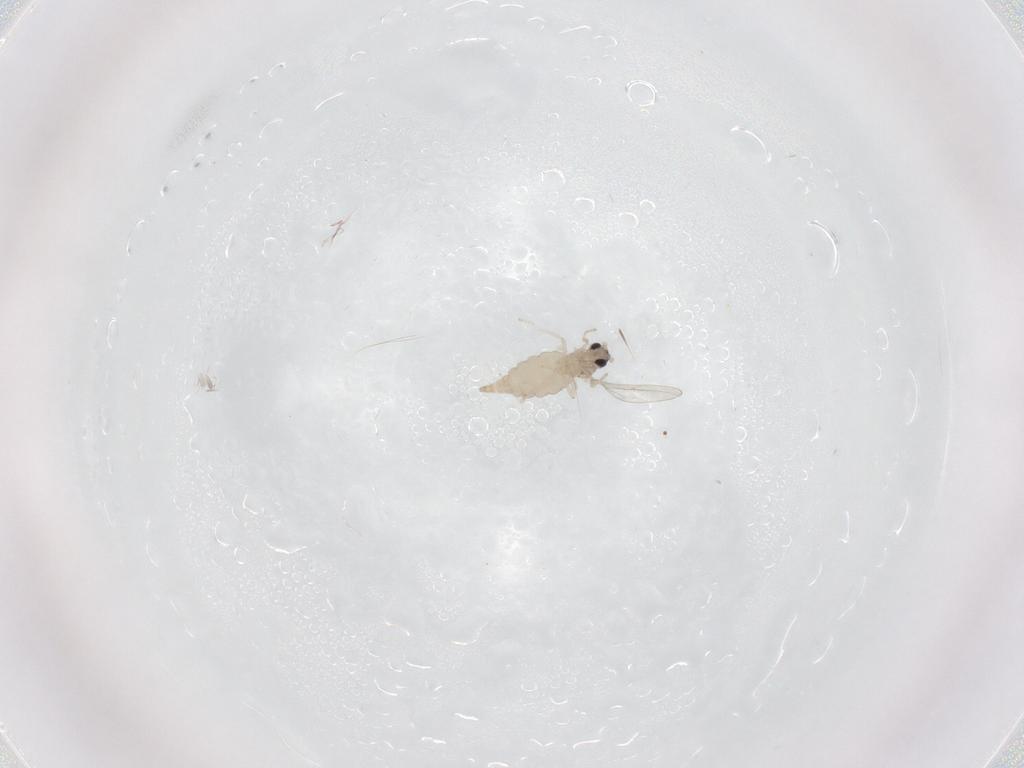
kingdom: Animalia
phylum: Arthropoda
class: Insecta
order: Diptera
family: Cecidomyiidae
